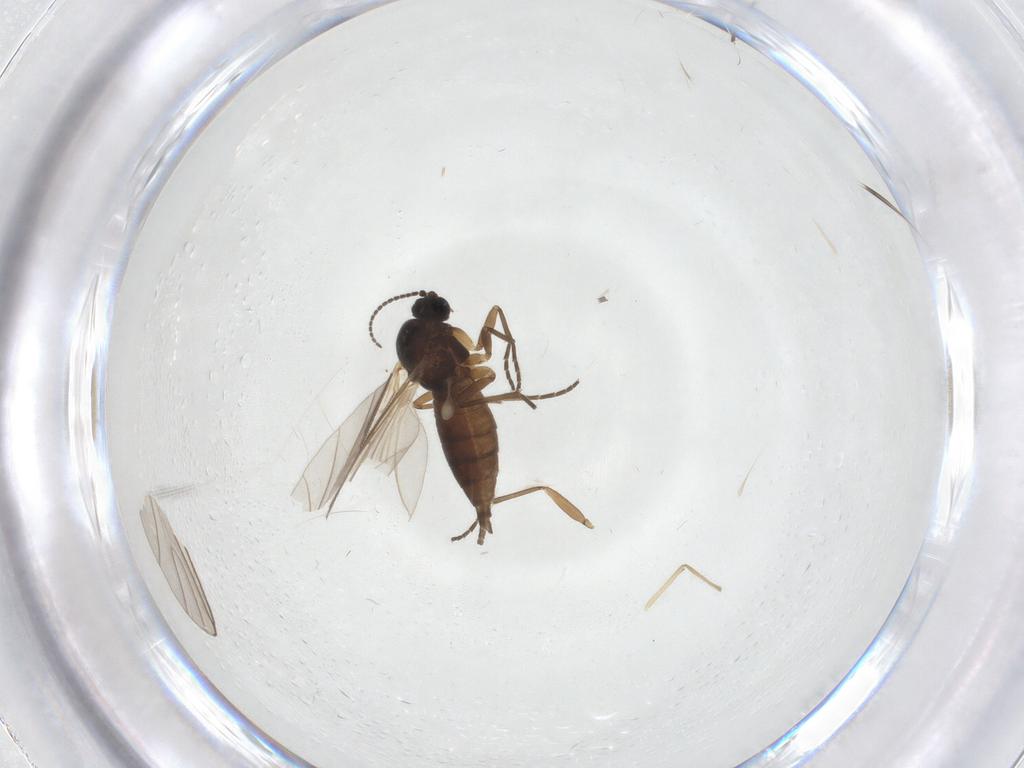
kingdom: Animalia
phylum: Arthropoda
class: Insecta
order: Diptera
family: Chironomidae
